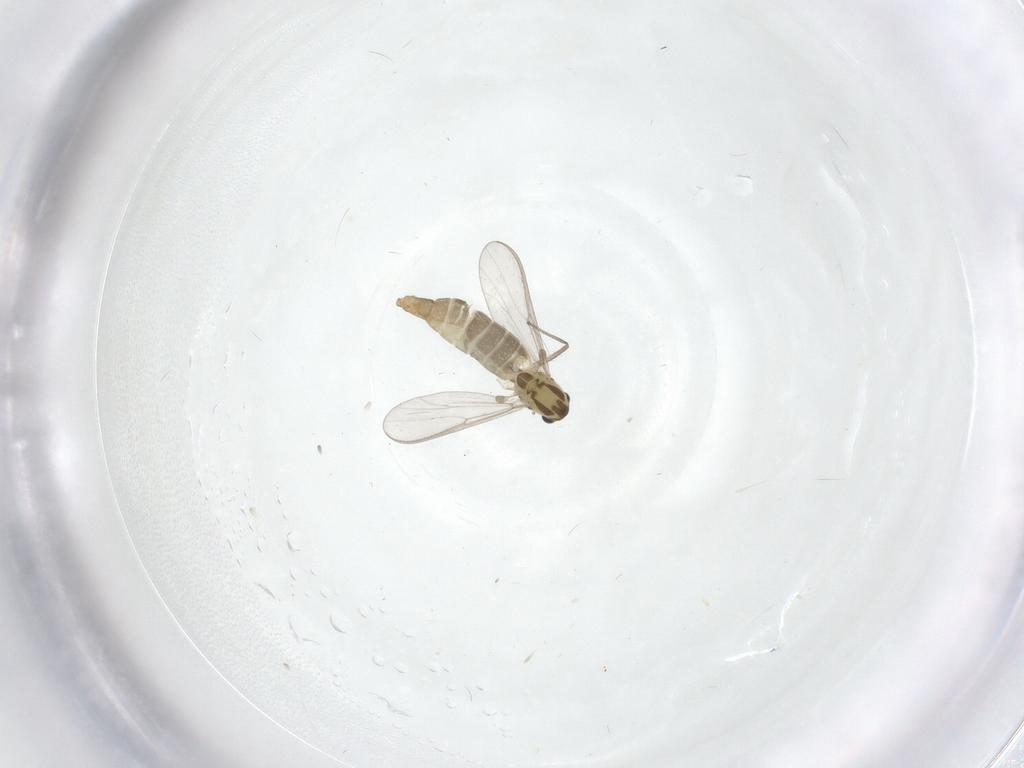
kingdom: Animalia
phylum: Arthropoda
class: Insecta
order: Diptera
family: Chironomidae
